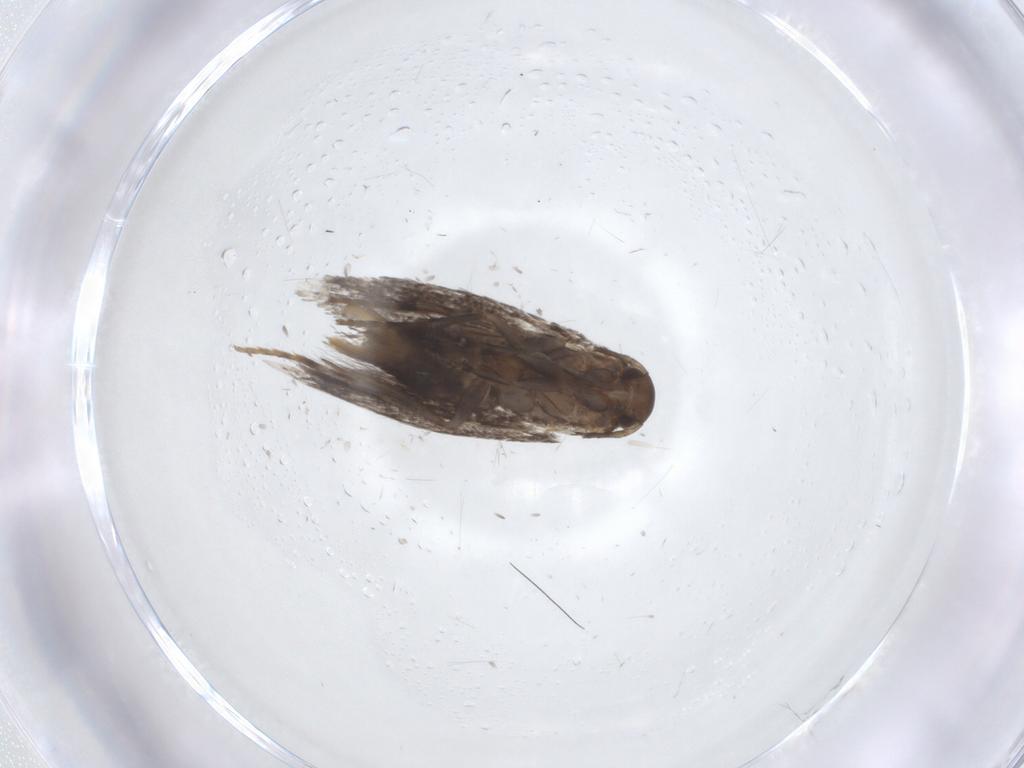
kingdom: Animalia
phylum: Arthropoda
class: Insecta
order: Lepidoptera
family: Elachistidae
